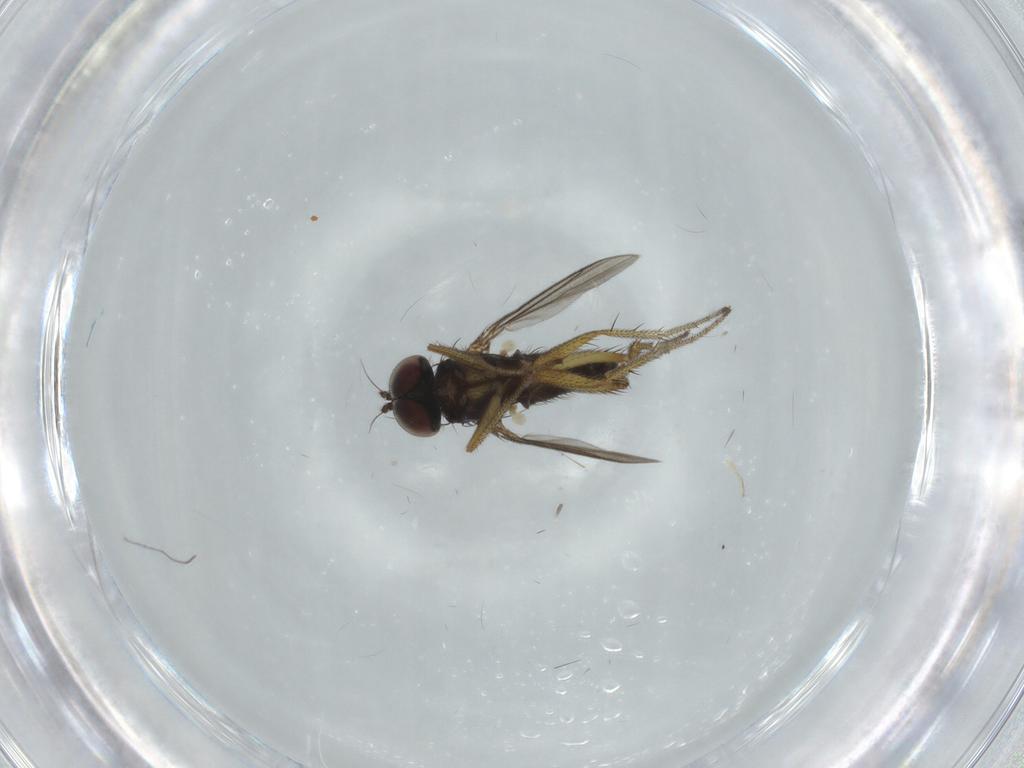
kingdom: Animalia
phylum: Arthropoda
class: Insecta
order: Diptera
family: Dolichopodidae
